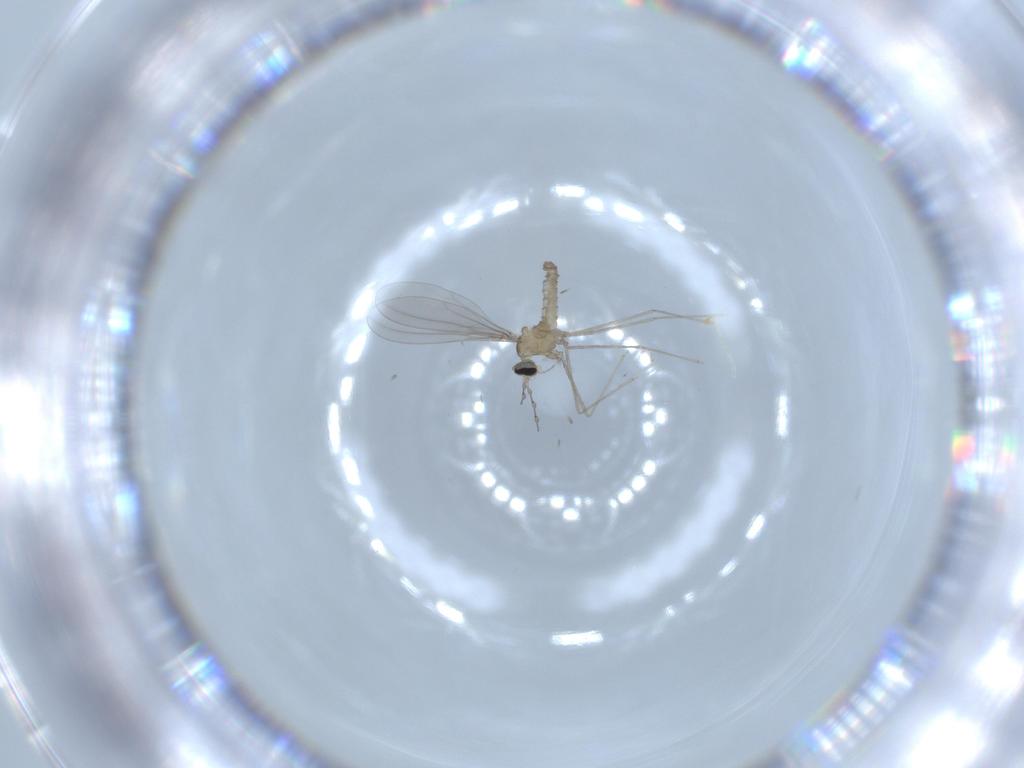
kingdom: Animalia
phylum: Arthropoda
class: Insecta
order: Diptera
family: Cecidomyiidae
